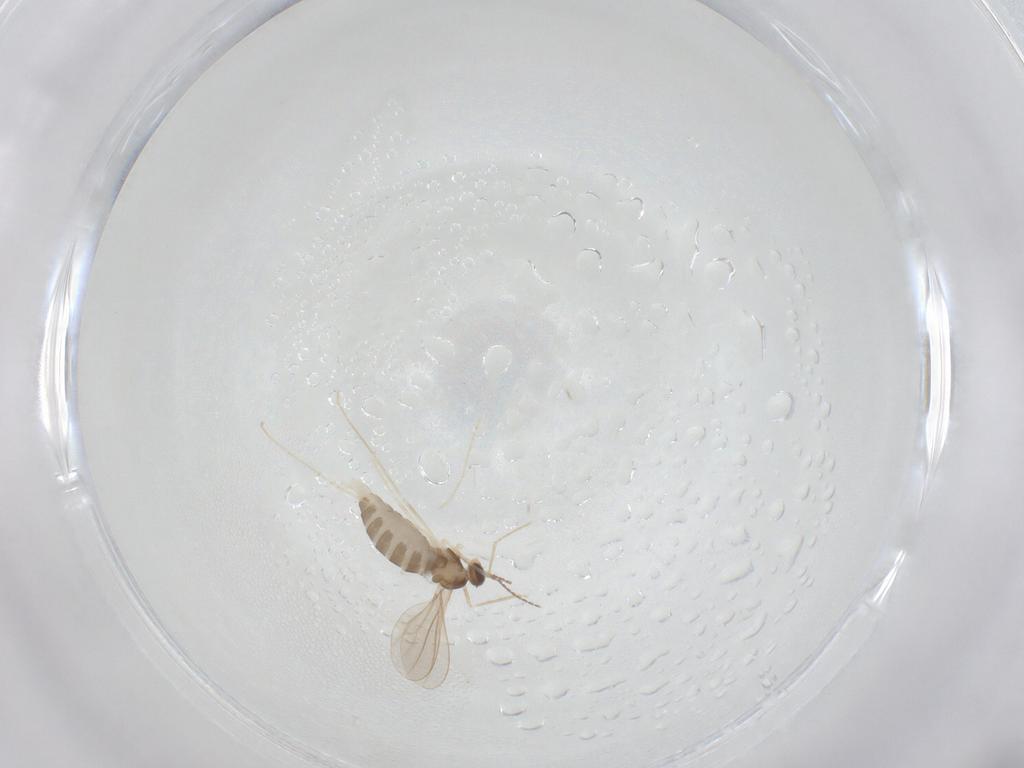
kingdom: Animalia
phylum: Arthropoda
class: Insecta
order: Diptera
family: Cecidomyiidae
